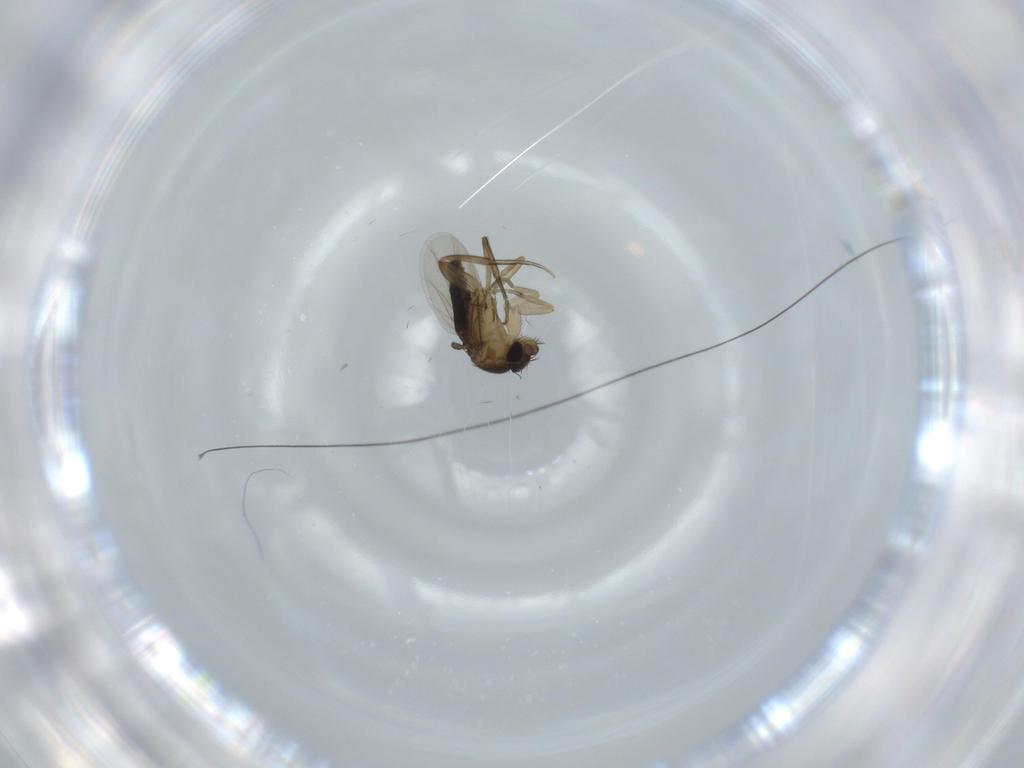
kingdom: Animalia
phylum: Arthropoda
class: Insecta
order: Diptera
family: Phoridae
